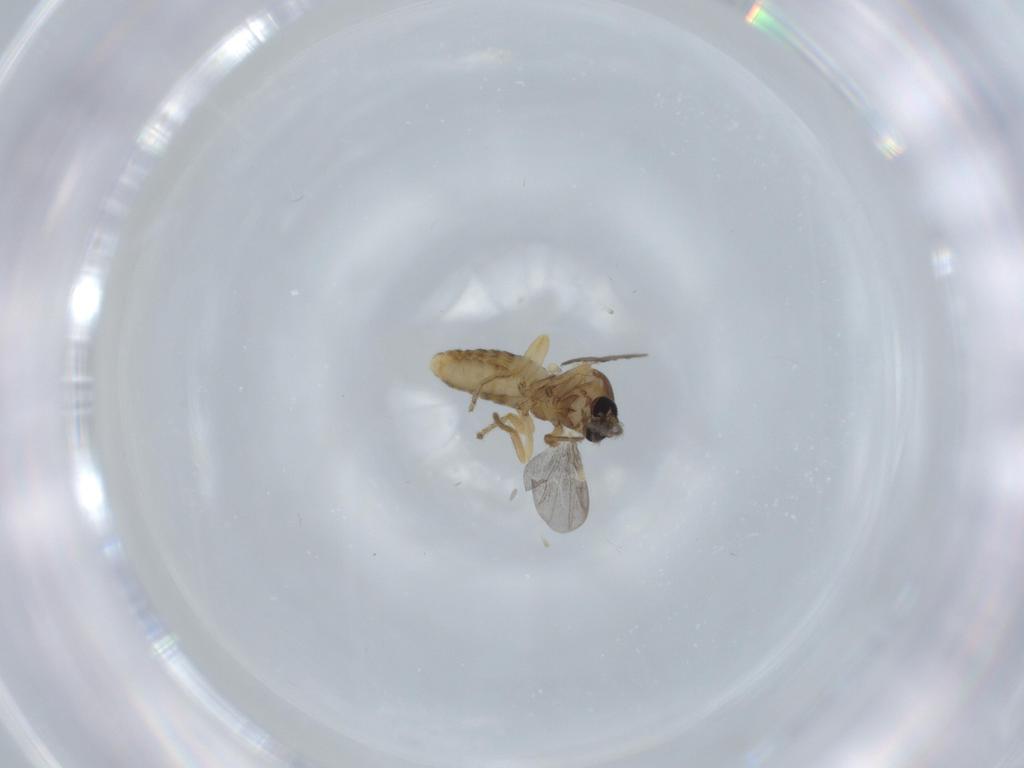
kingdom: Animalia
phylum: Arthropoda
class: Insecta
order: Diptera
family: Ceratopogonidae
